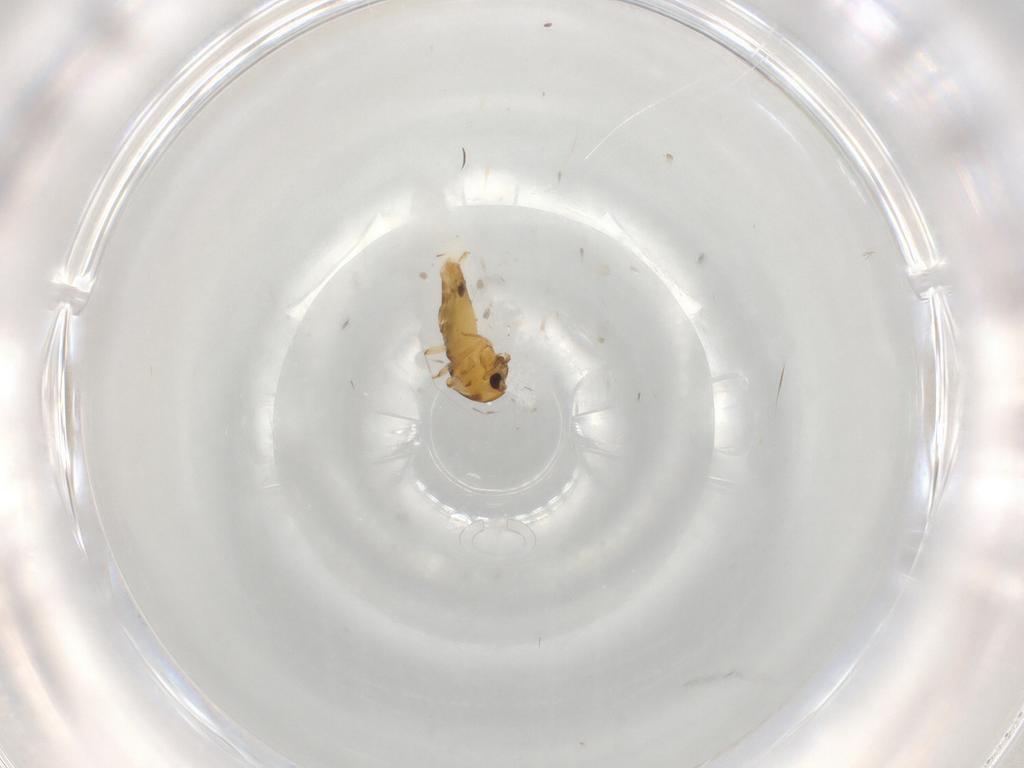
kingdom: Animalia
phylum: Arthropoda
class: Insecta
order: Diptera
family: Chironomidae
